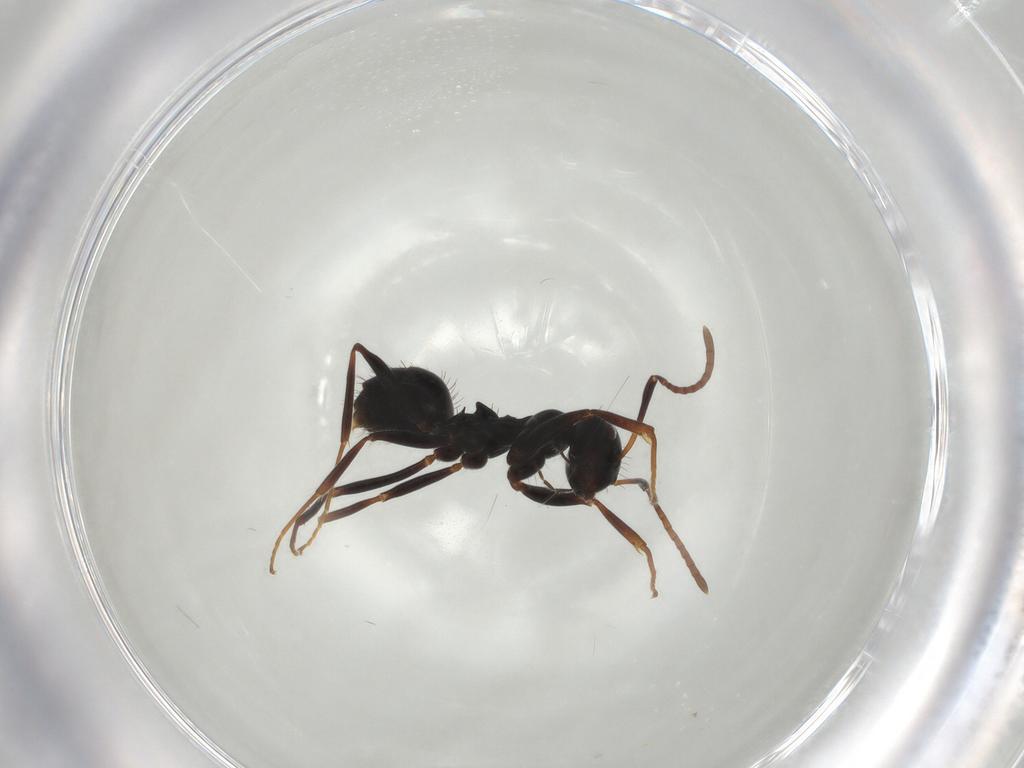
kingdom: Animalia
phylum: Arthropoda
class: Insecta
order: Hymenoptera
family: Formicidae
